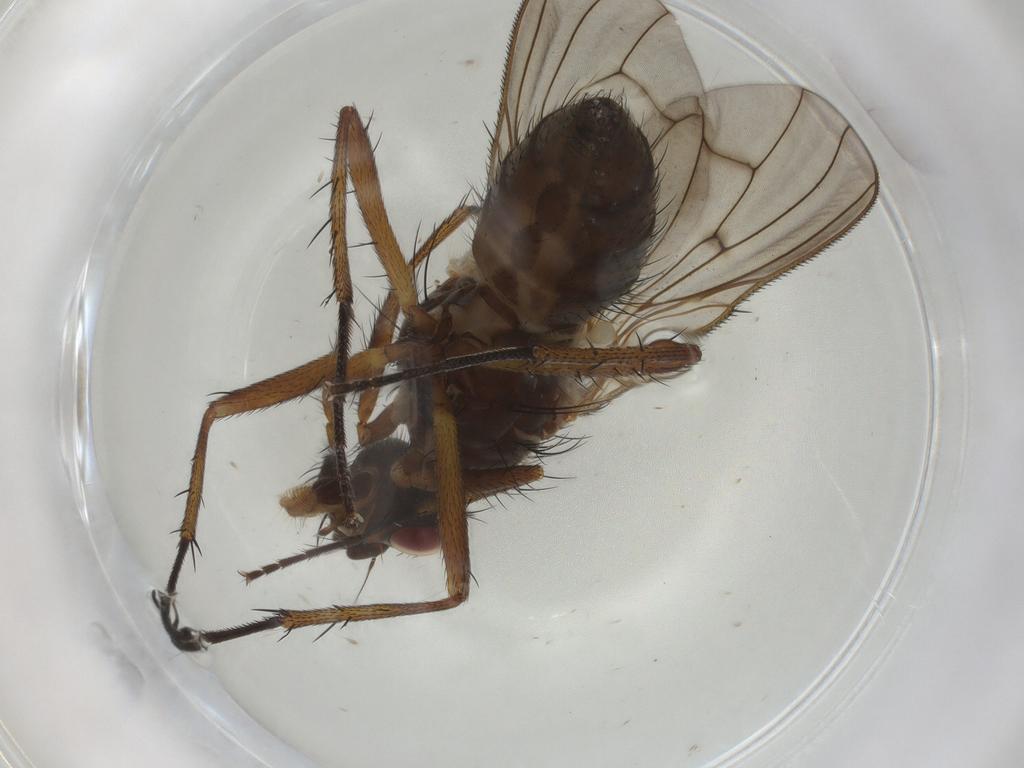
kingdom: Animalia
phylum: Arthropoda
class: Insecta
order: Diptera
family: Anthomyiidae
